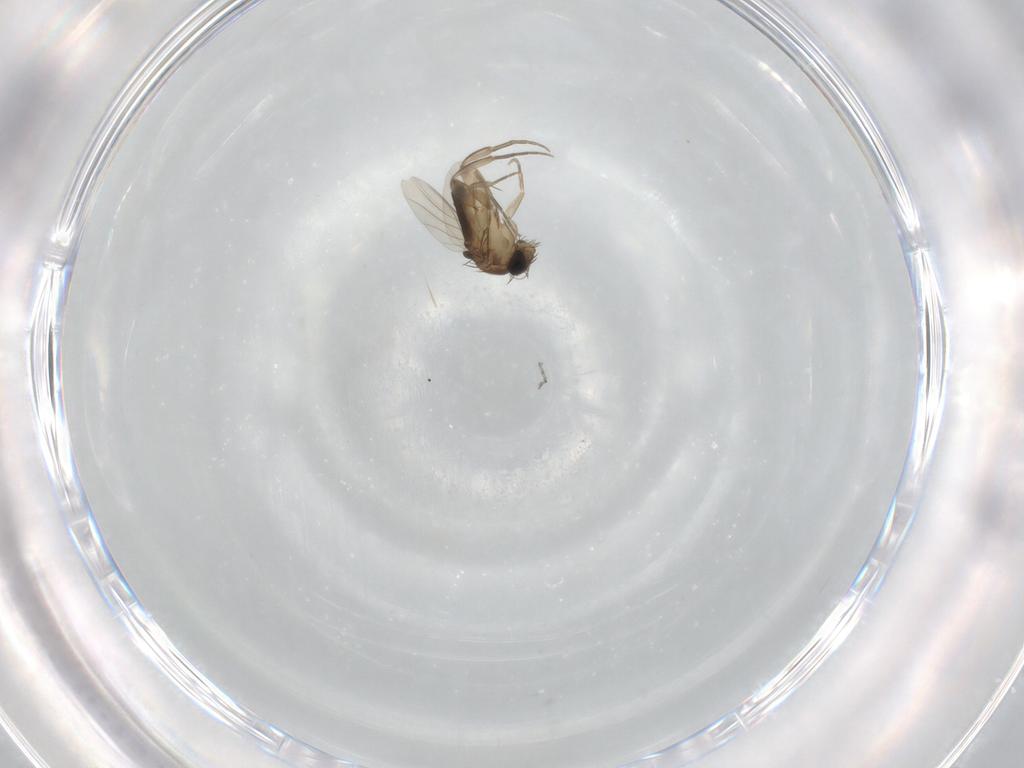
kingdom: Animalia
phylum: Arthropoda
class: Insecta
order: Diptera
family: Phoridae
